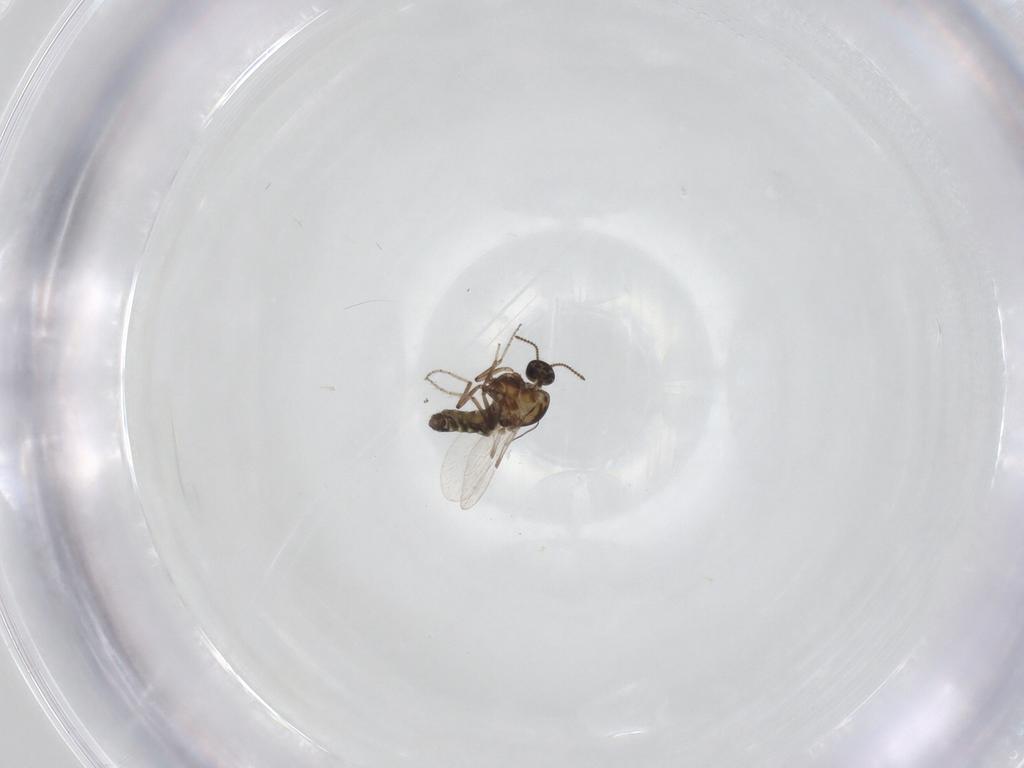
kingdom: Animalia
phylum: Arthropoda
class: Insecta
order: Diptera
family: Ceratopogonidae
